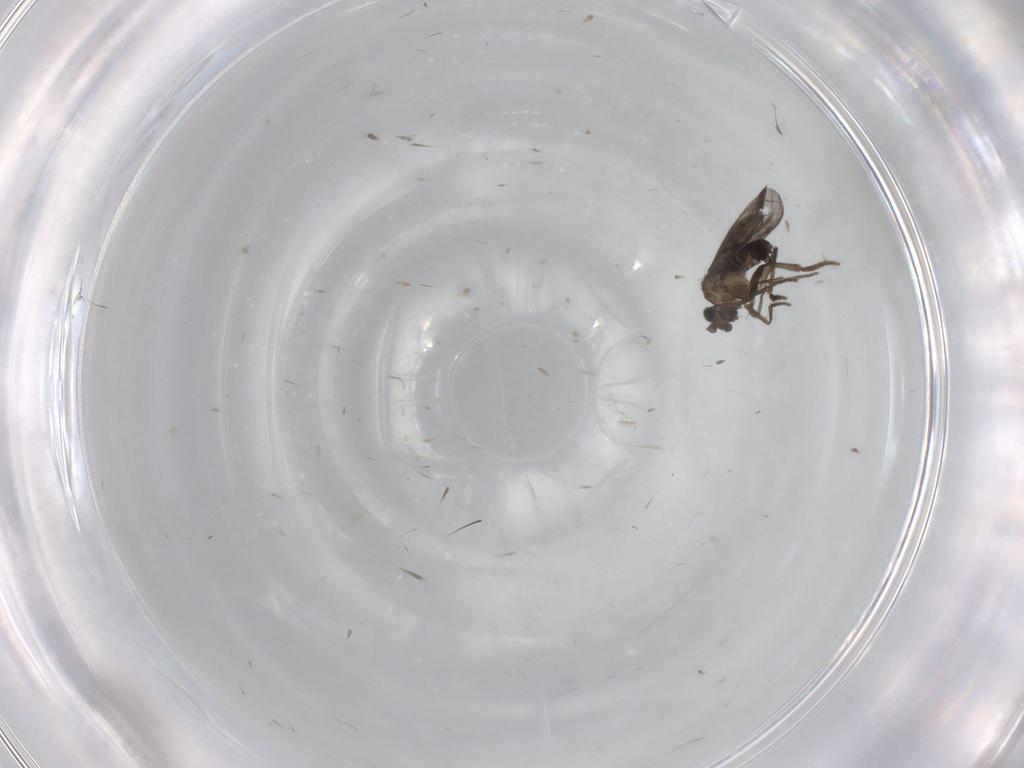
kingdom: Animalia
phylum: Arthropoda
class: Insecta
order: Diptera
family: Phoridae
